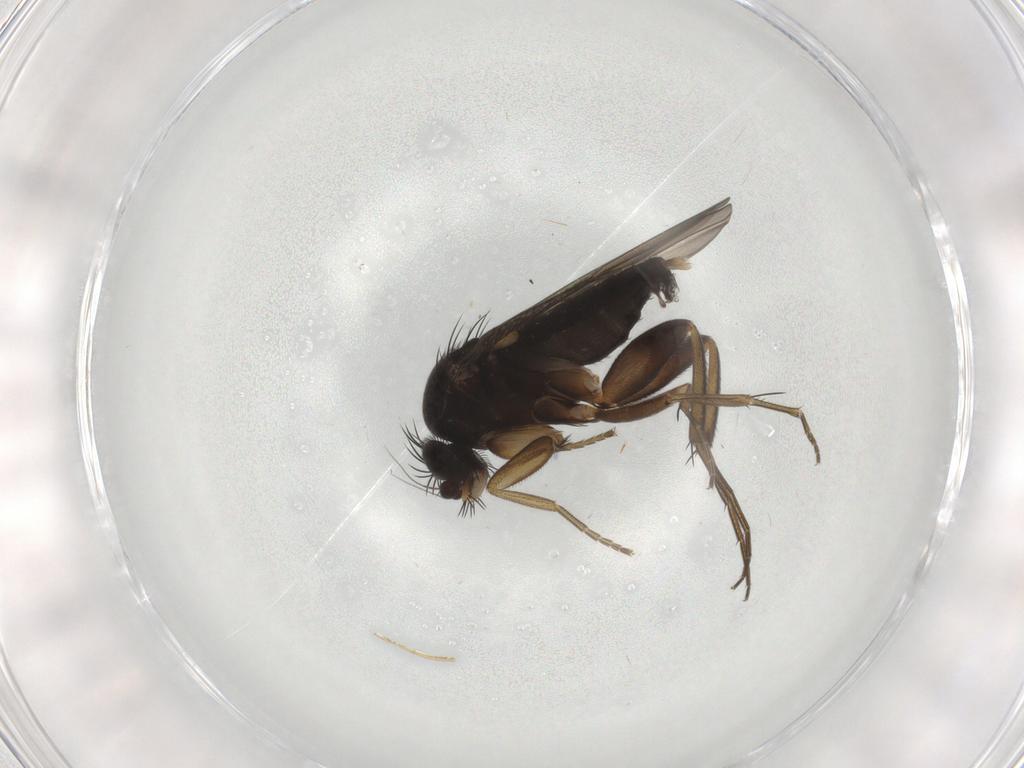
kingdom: Animalia
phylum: Arthropoda
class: Insecta
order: Diptera
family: Phoridae
